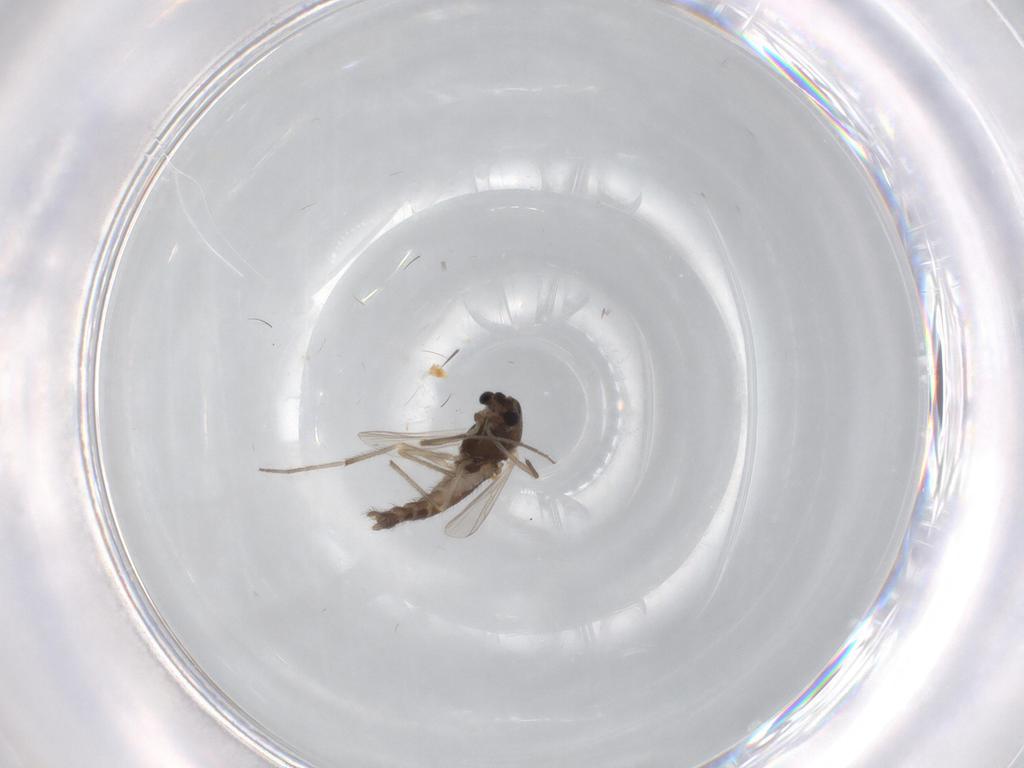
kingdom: Animalia
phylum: Arthropoda
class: Insecta
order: Diptera
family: Chironomidae
